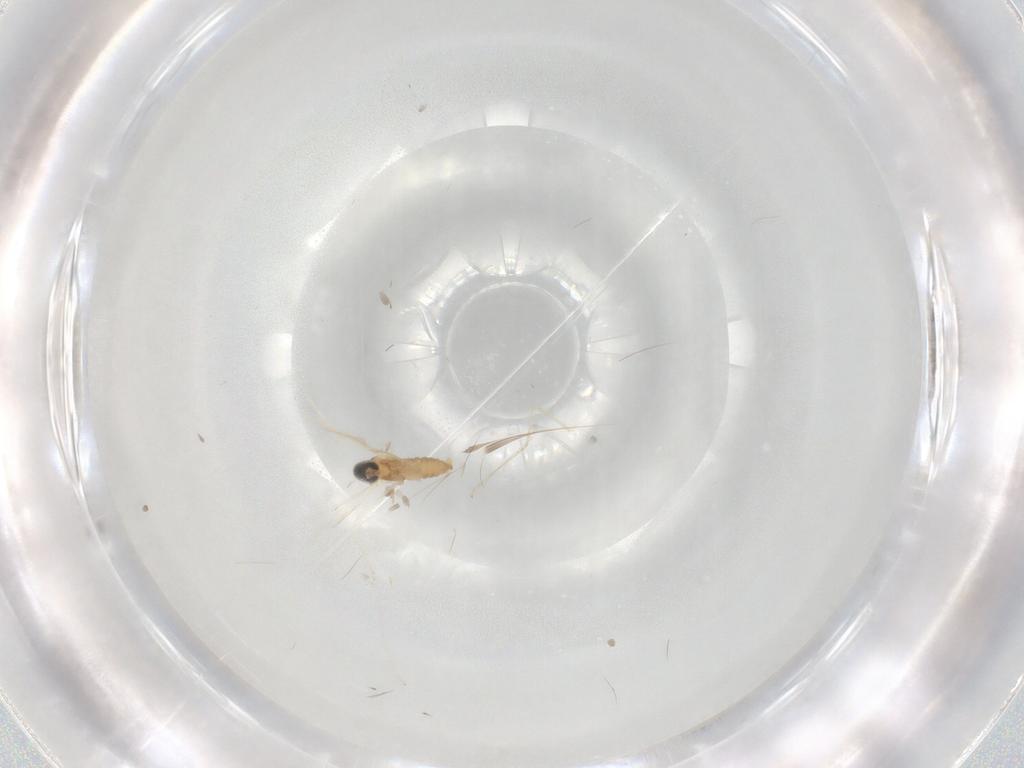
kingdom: Animalia
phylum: Arthropoda
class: Insecta
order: Diptera
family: Cecidomyiidae
